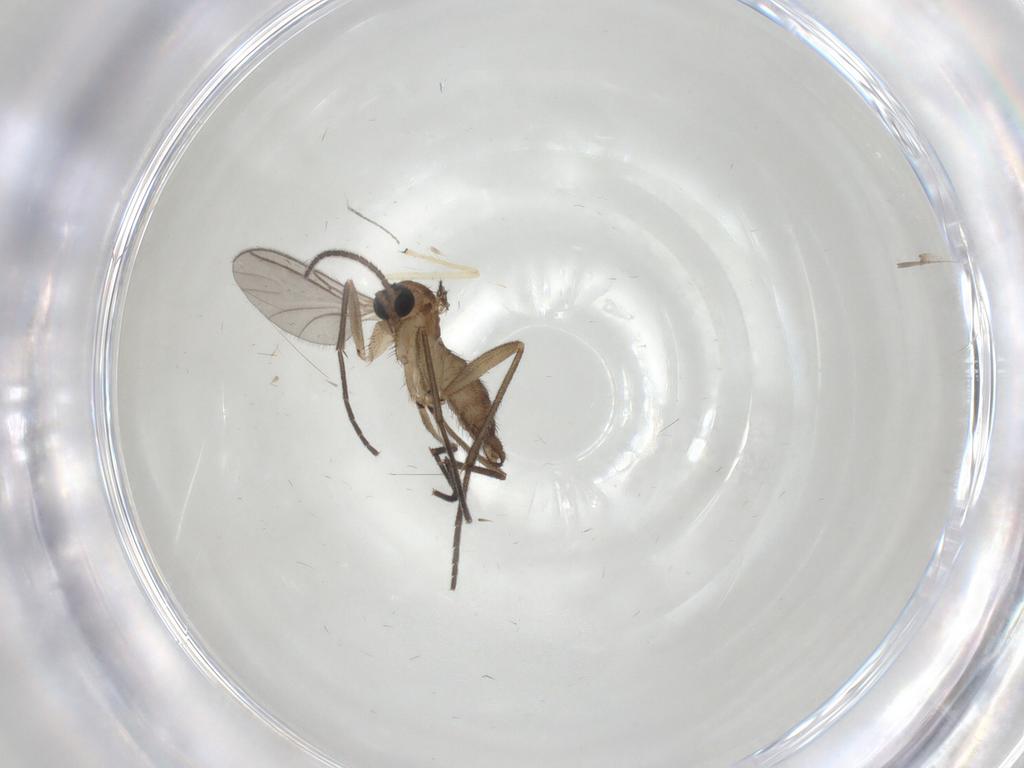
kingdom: Animalia
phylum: Arthropoda
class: Insecta
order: Diptera
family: Sciaridae
